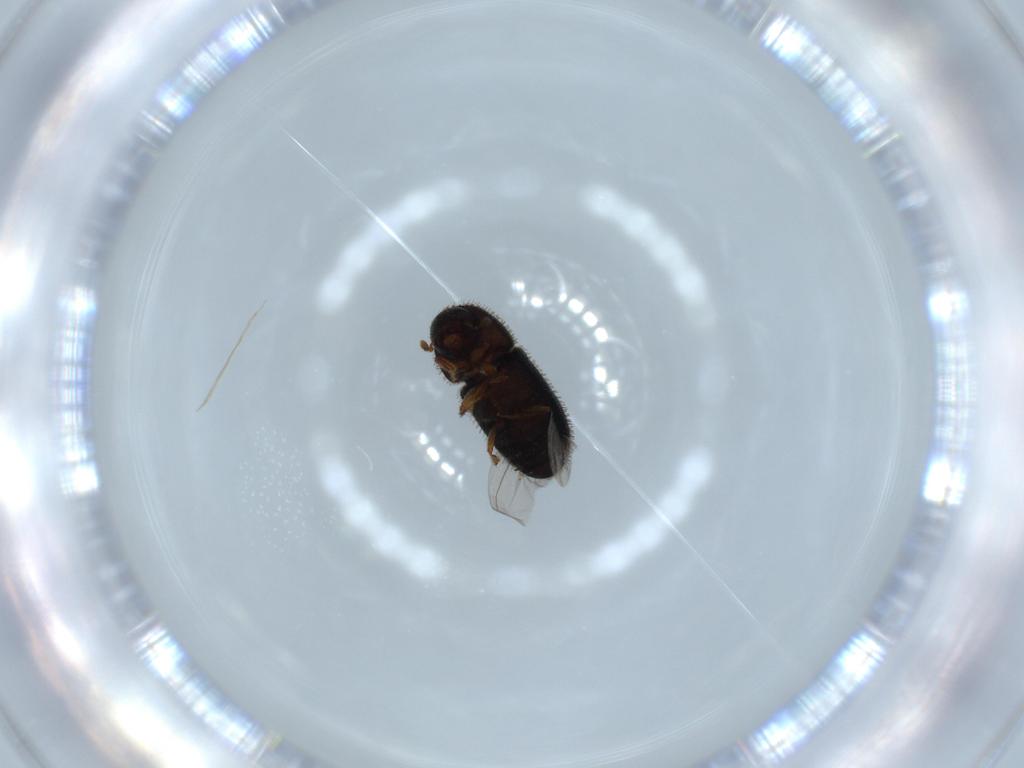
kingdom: Animalia
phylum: Arthropoda
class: Insecta
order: Coleoptera
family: Curculionidae
